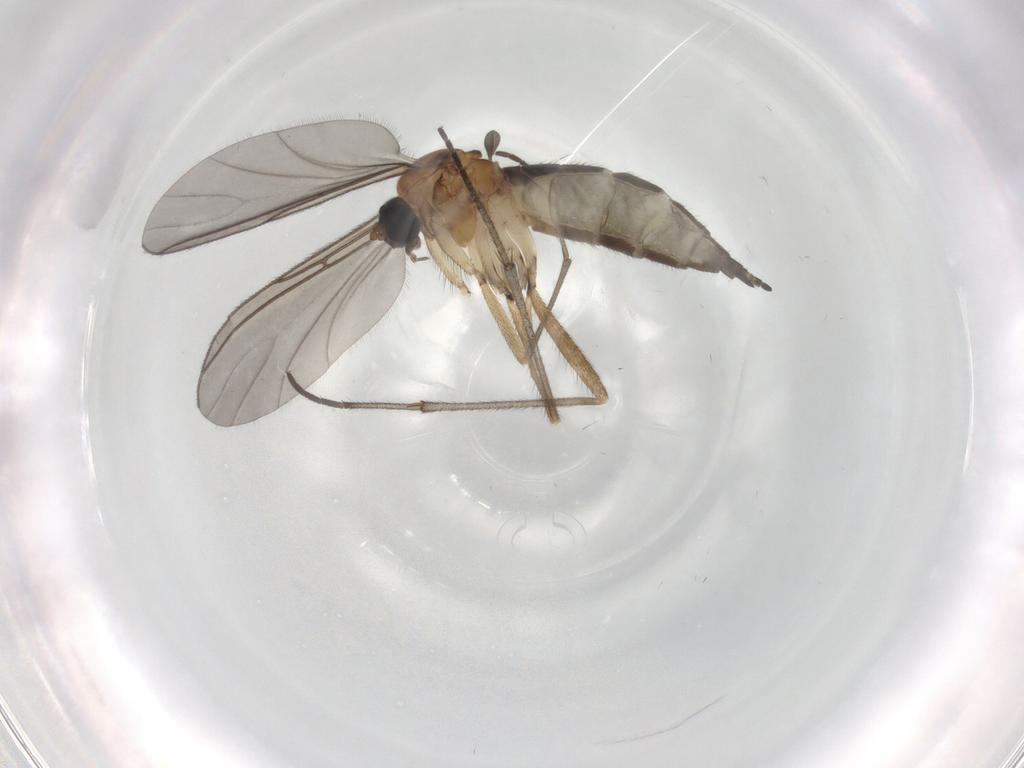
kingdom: Animalia
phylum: Arthropoda
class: Insecta
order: Diptera
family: Sciaridae
